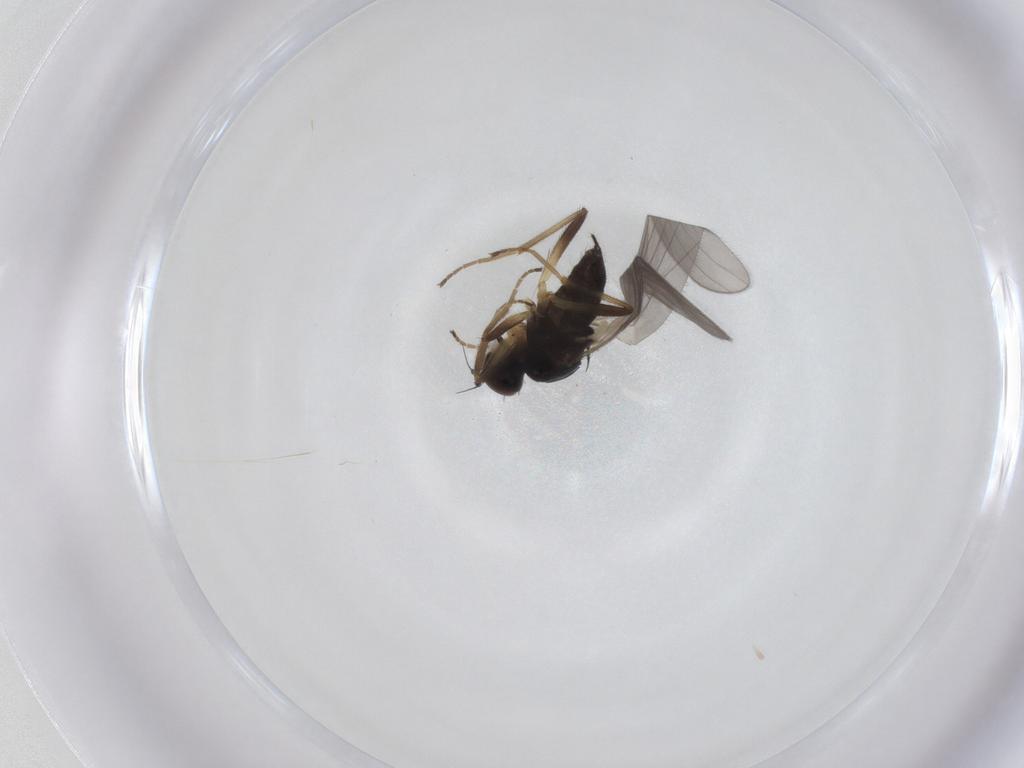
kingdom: Animalia
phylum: Arthropoda
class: Insecta
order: Diptera
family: Hybotidae
